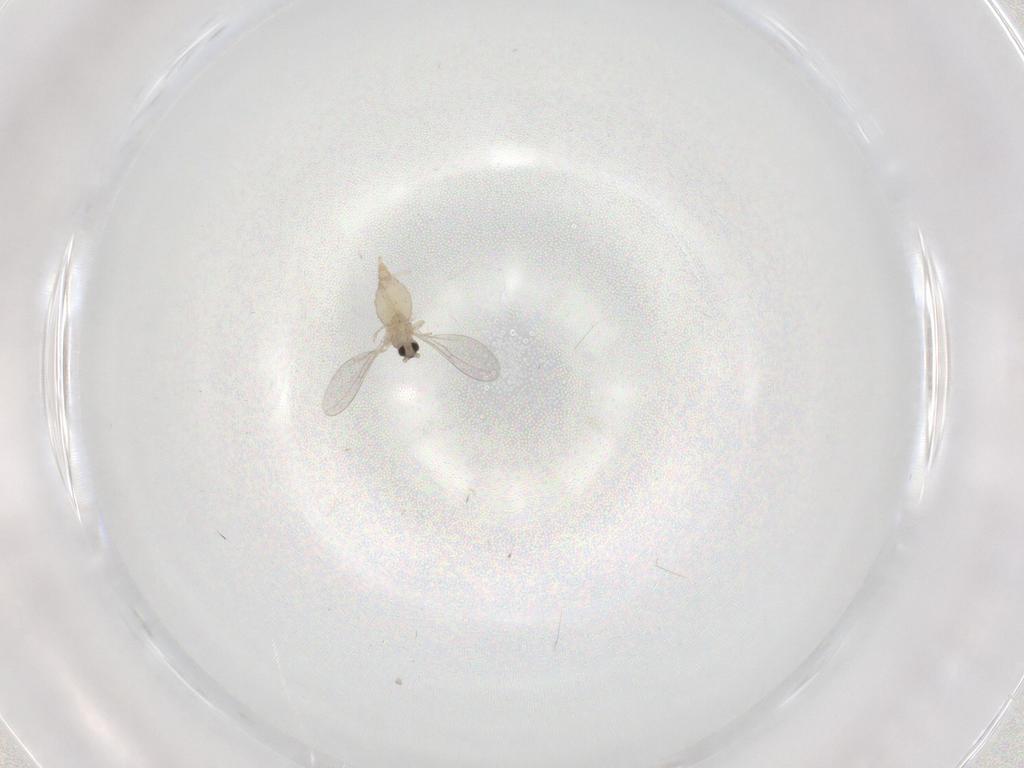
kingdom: Animalia
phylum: Arthropoda
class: Insecta
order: Diptera
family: Cecidomyiidae
